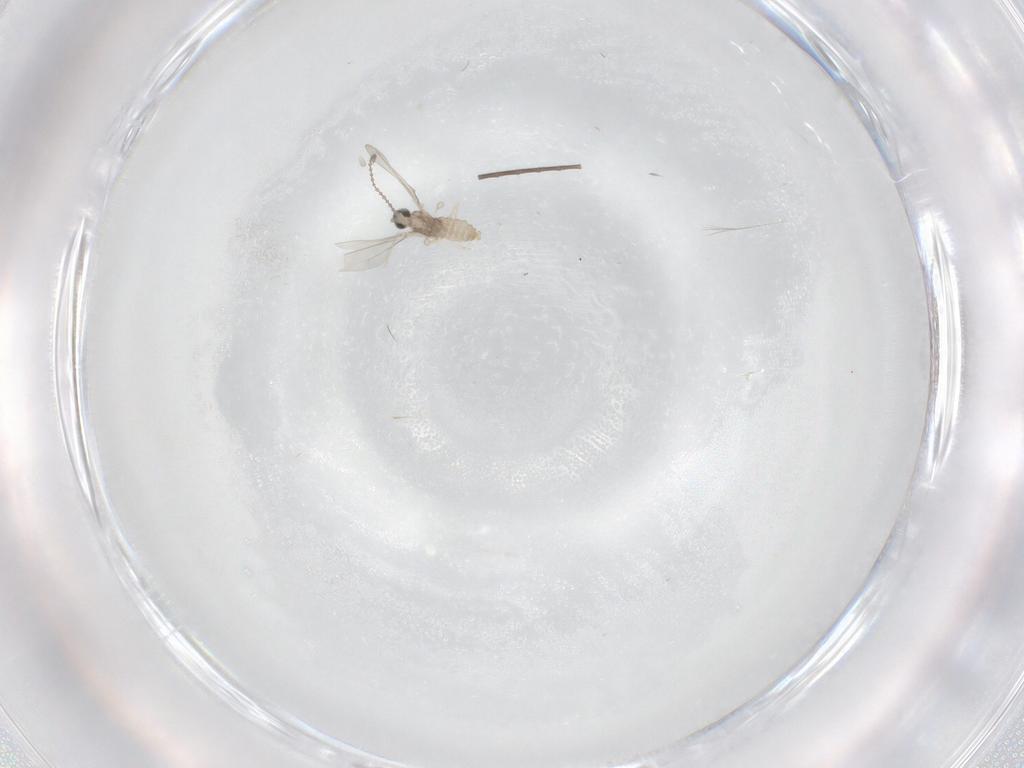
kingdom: Animalia
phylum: Arthropoda
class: Insecta
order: Diptera
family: Ceratopogonidae
